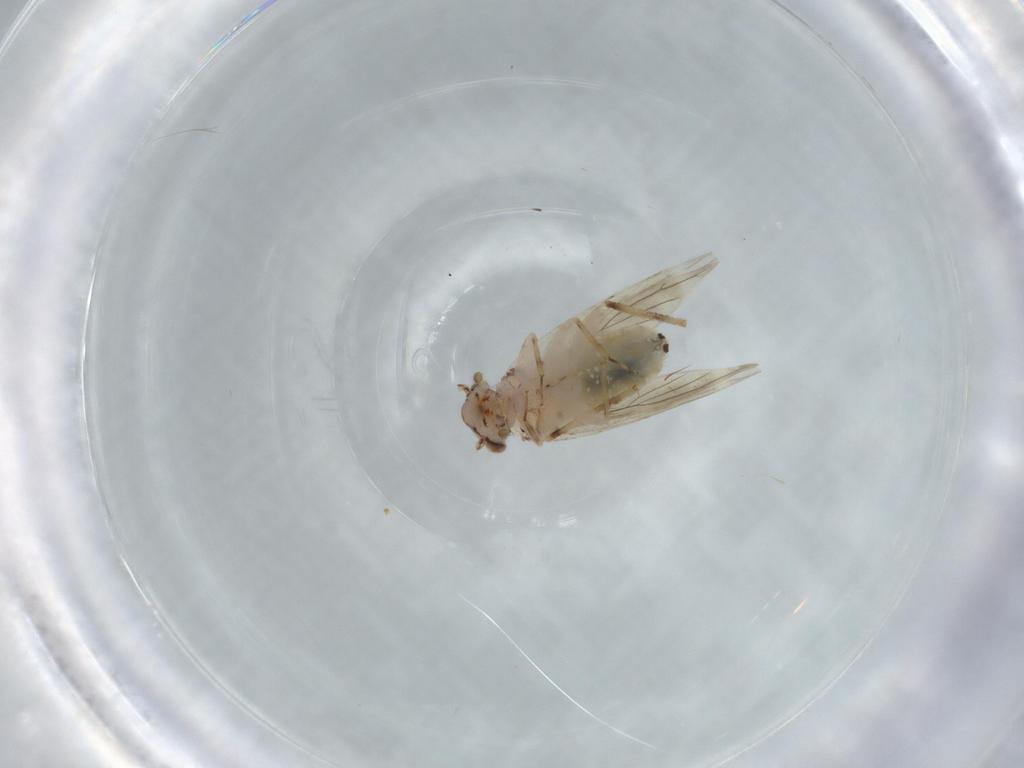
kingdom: Animalia
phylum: Arthropoda
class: Insecta
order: Psocodea
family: Lepidopsocidae
